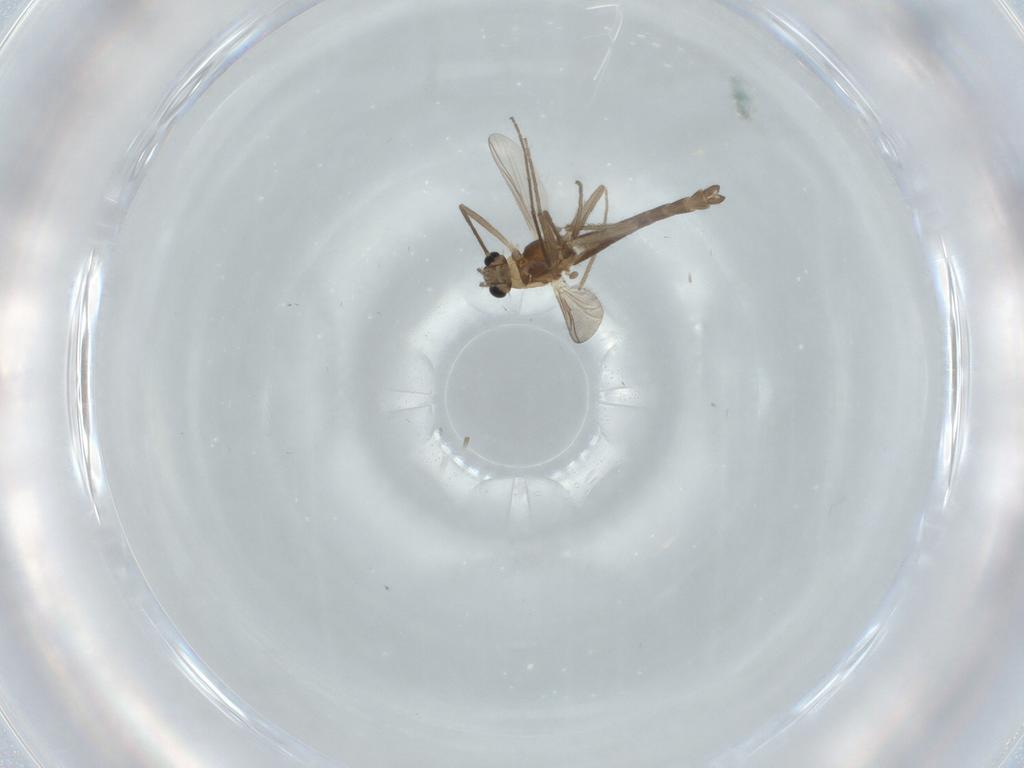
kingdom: Animalia
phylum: Arthropoda
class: Insecta
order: Diptera
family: Chironomidae
